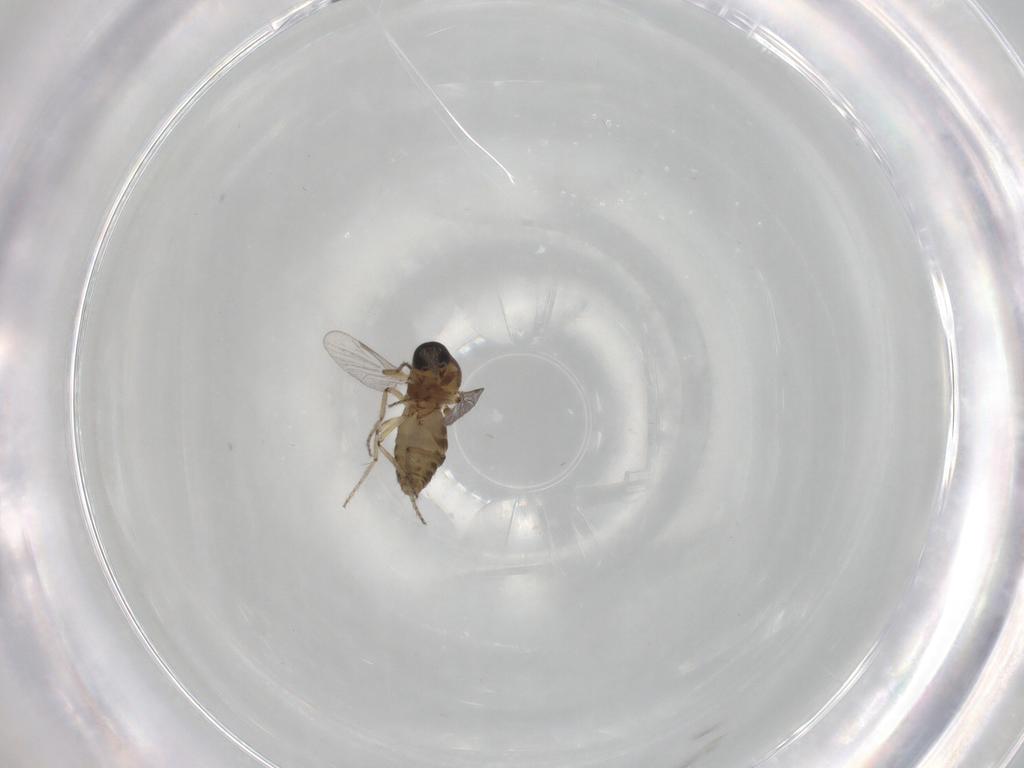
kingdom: Animalia
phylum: Arthropoda
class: Insecta
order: Diptera
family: Ceratopogonidae
